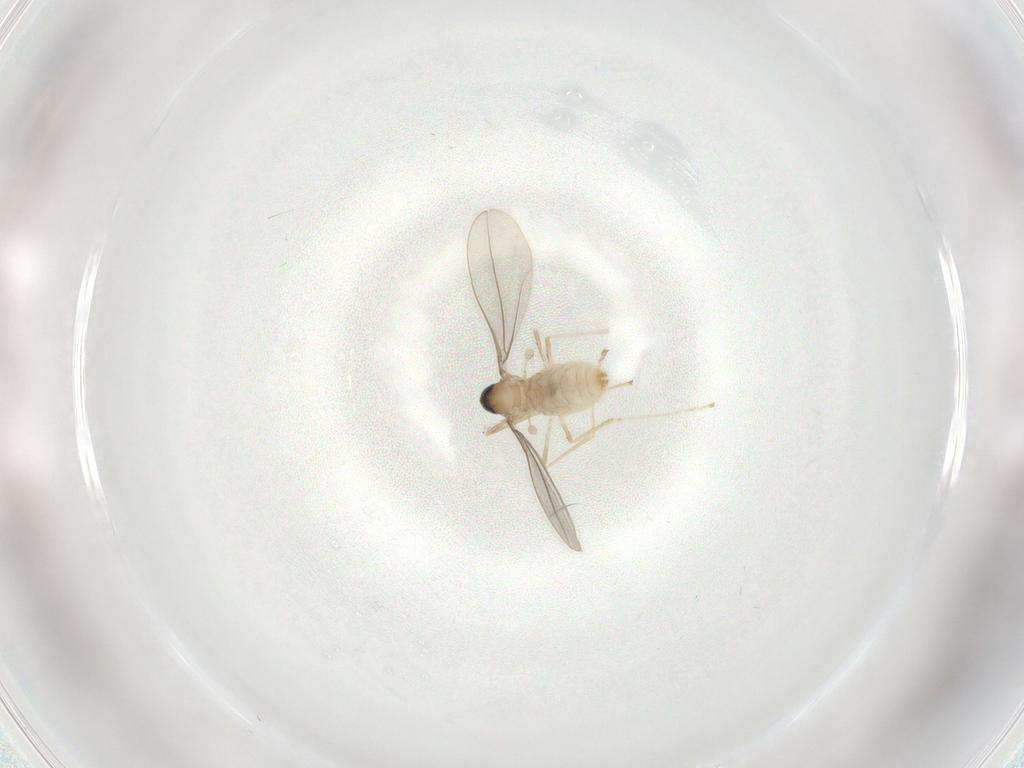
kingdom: Animalia
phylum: Arthropoda
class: Insecta
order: Diptera
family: Cecidomyiidae
